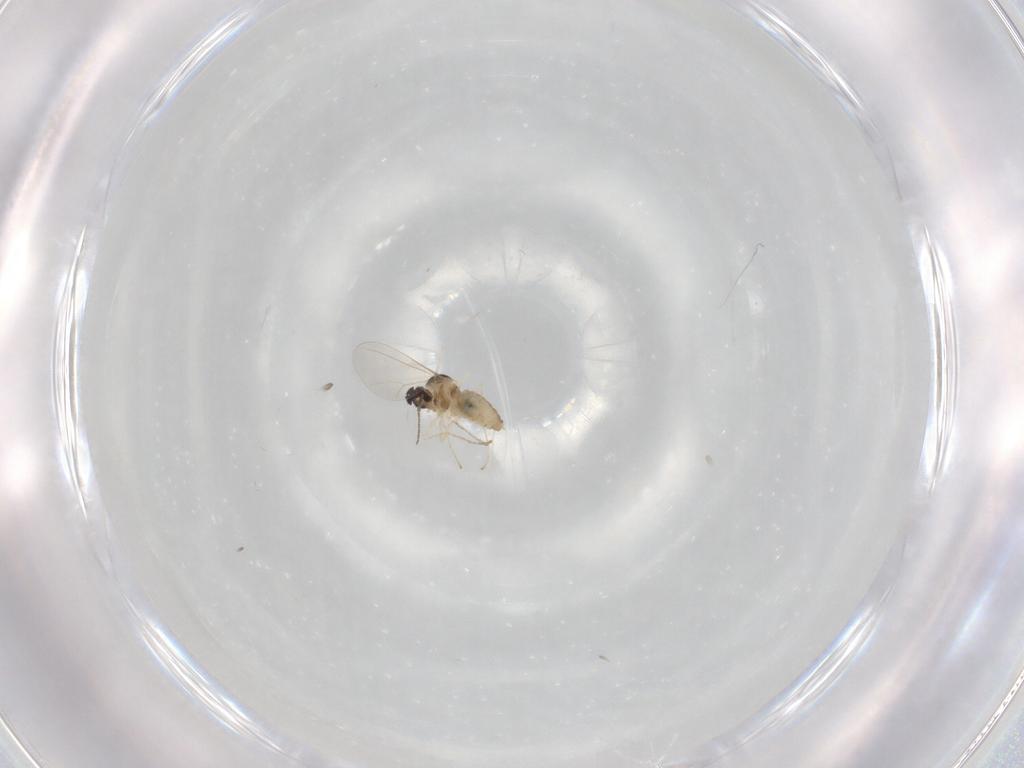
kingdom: Animalia
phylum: Arthropoda
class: Insecta
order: Diptera
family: Cecidomyiidae
